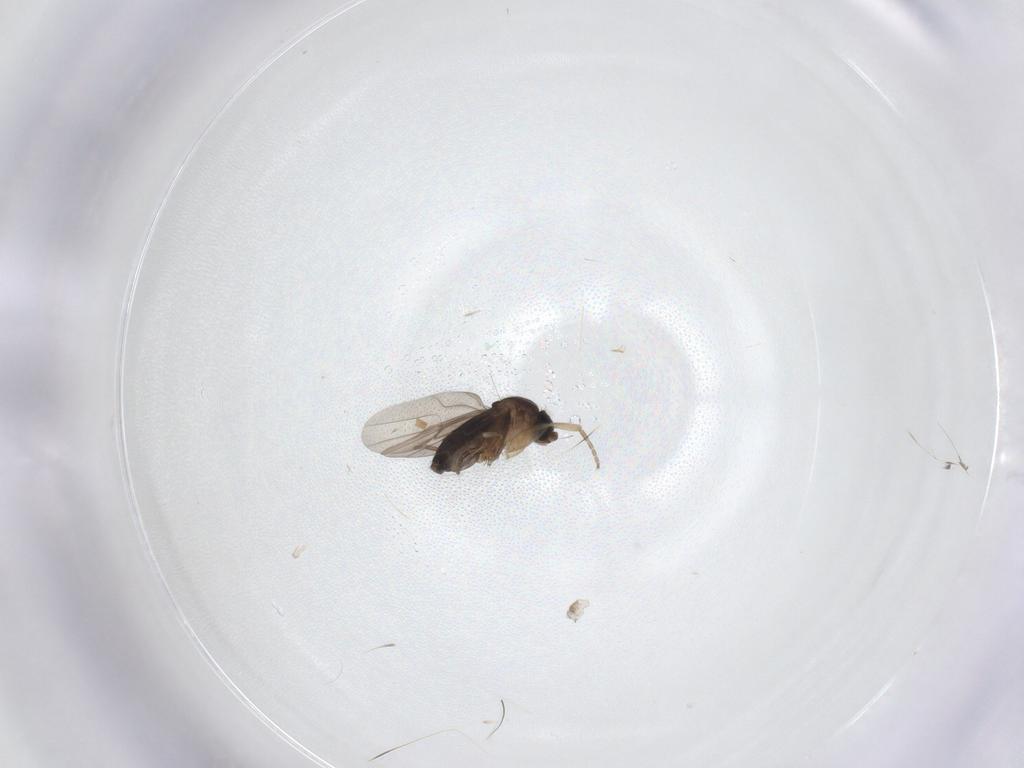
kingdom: Animalia
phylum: Arthropoda
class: Insecta
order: Diptera
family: Phoridae
